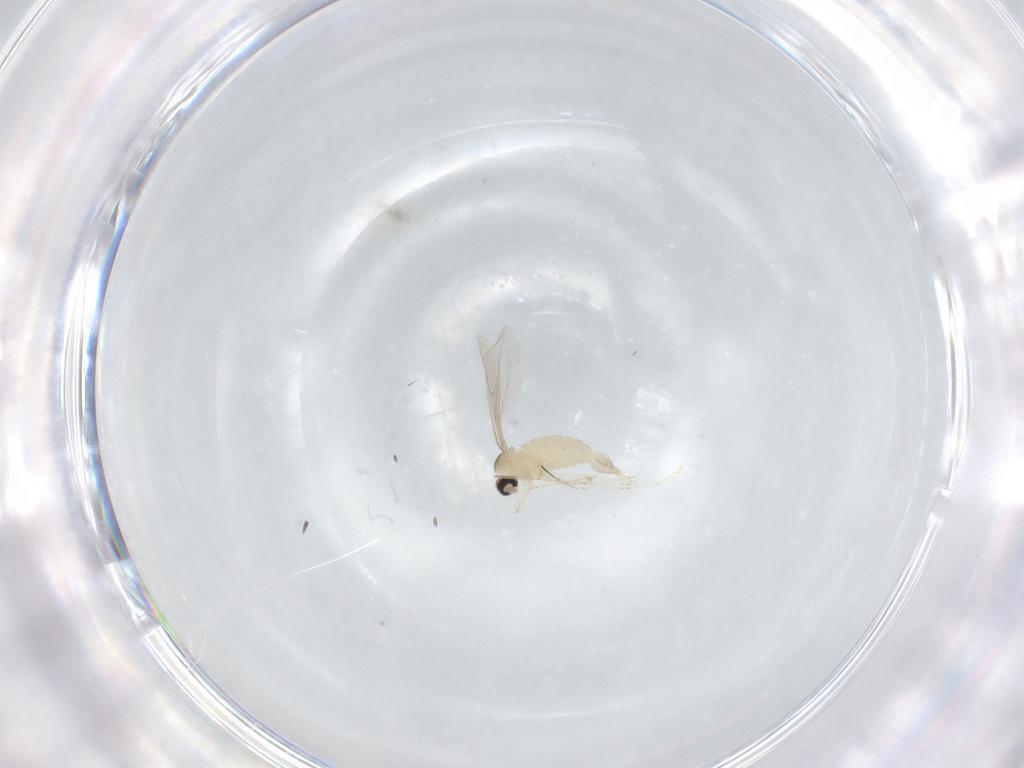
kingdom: Animalia
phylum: Arthropoda
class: Insecta
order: Diptera
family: Cecidomyiidae
